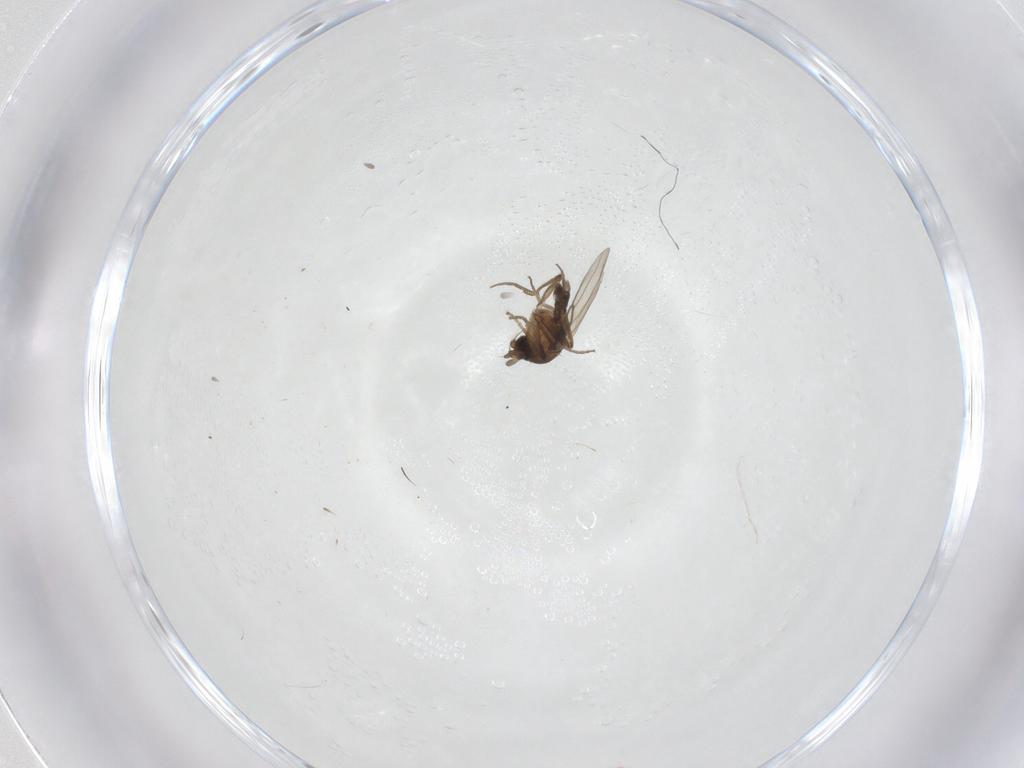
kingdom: Animalia
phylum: Arthropoda
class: Insecta
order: Diptera
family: Phoridae
